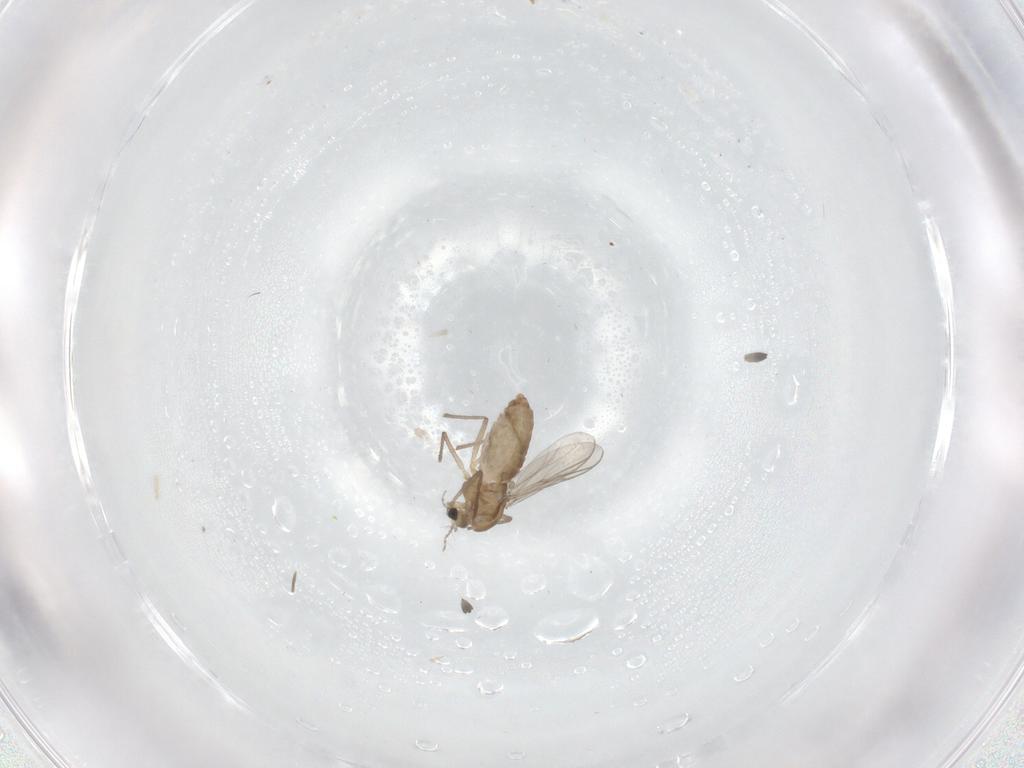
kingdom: Animalia
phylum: Arthropoda
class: Insecta
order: Diptera
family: Chironomidae
